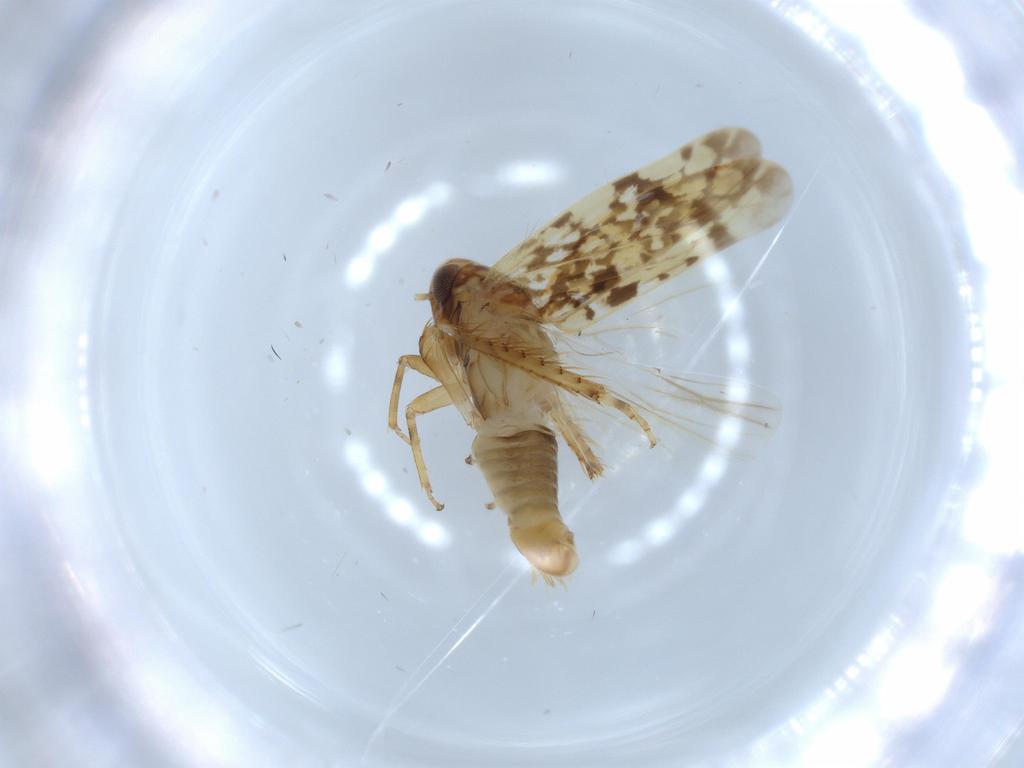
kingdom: Animalia
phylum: Arthropoda
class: Insecta
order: Hemiptera
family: Cicadellidae
